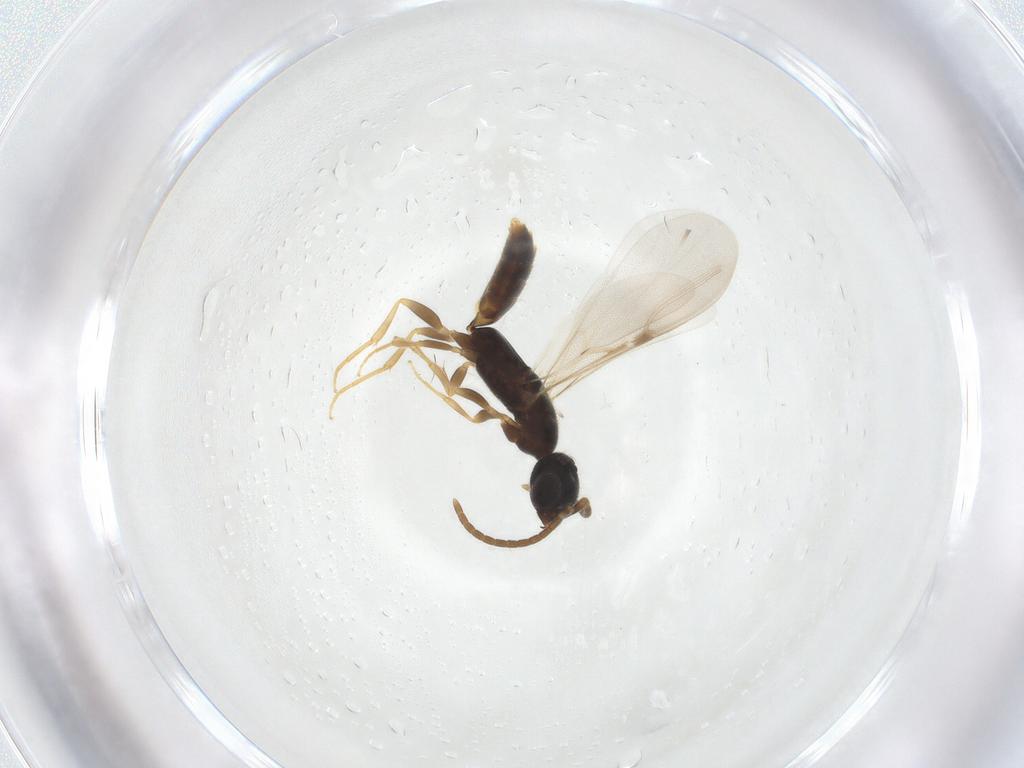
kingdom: Animalia
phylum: Arthropoda
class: Insecta
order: Hymenoptera
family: Bethylidae
